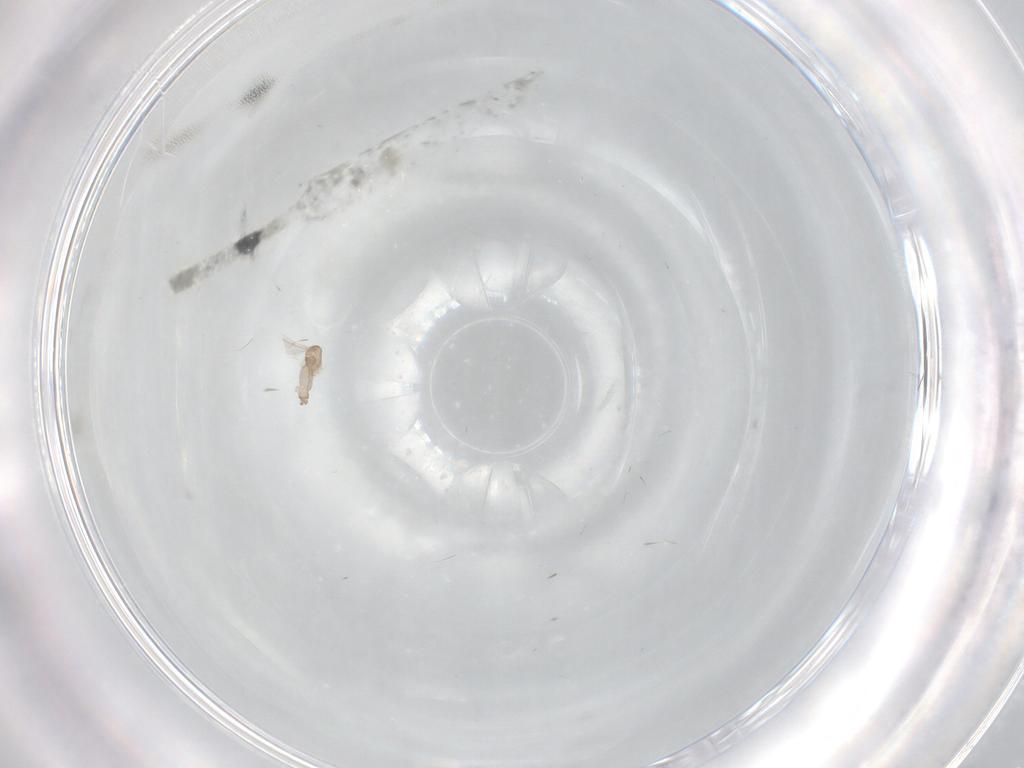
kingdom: Animalia
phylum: Arthropoda
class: Insecta
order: Diptera
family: Cecidomyiidae
